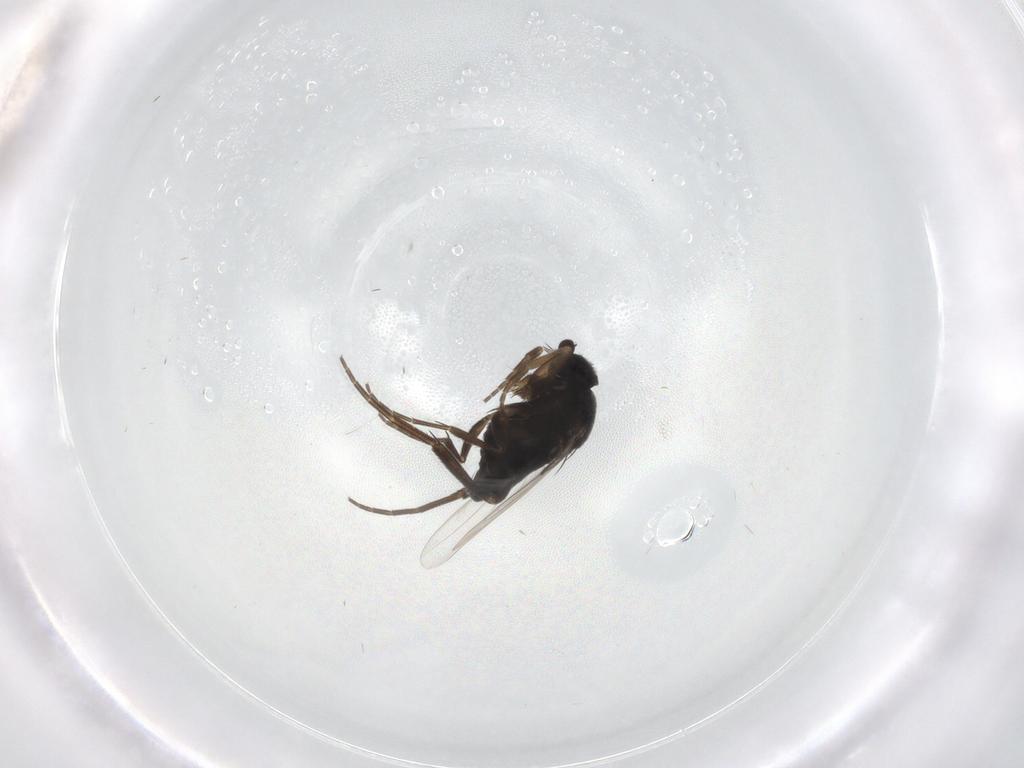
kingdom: Animalia
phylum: Arthropoda
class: Insecta
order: Diptera
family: Phoridae
